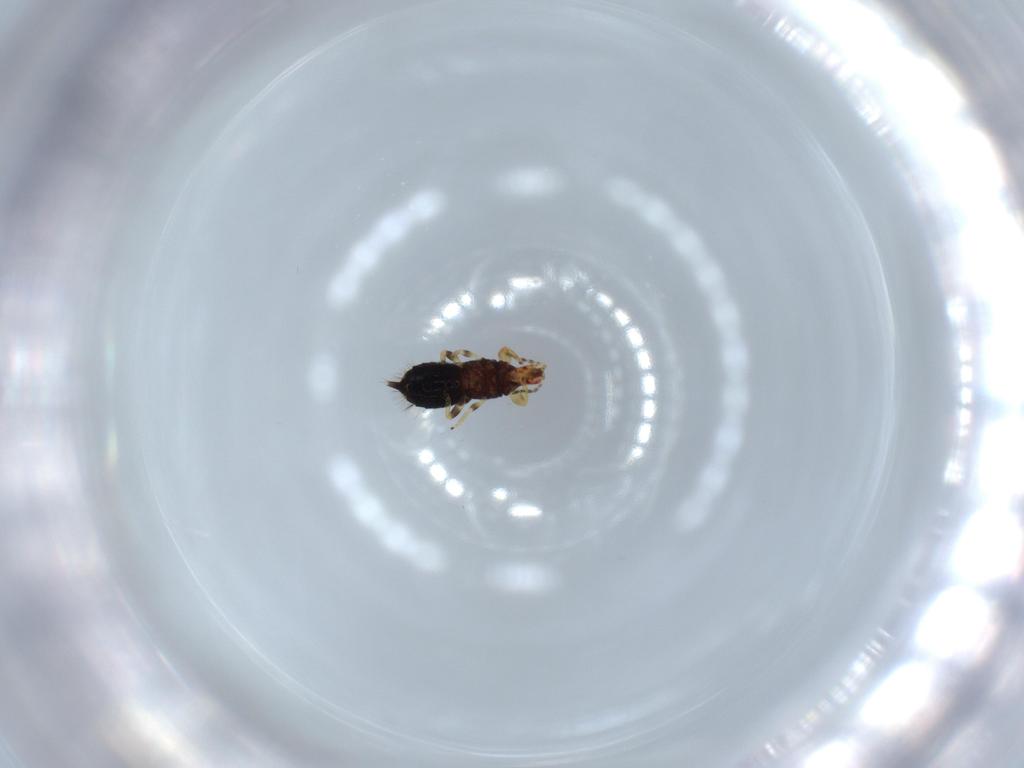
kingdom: Animalia
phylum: Arthropoda
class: Insecta
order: Thysanoptera
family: Phlaeothripidae
